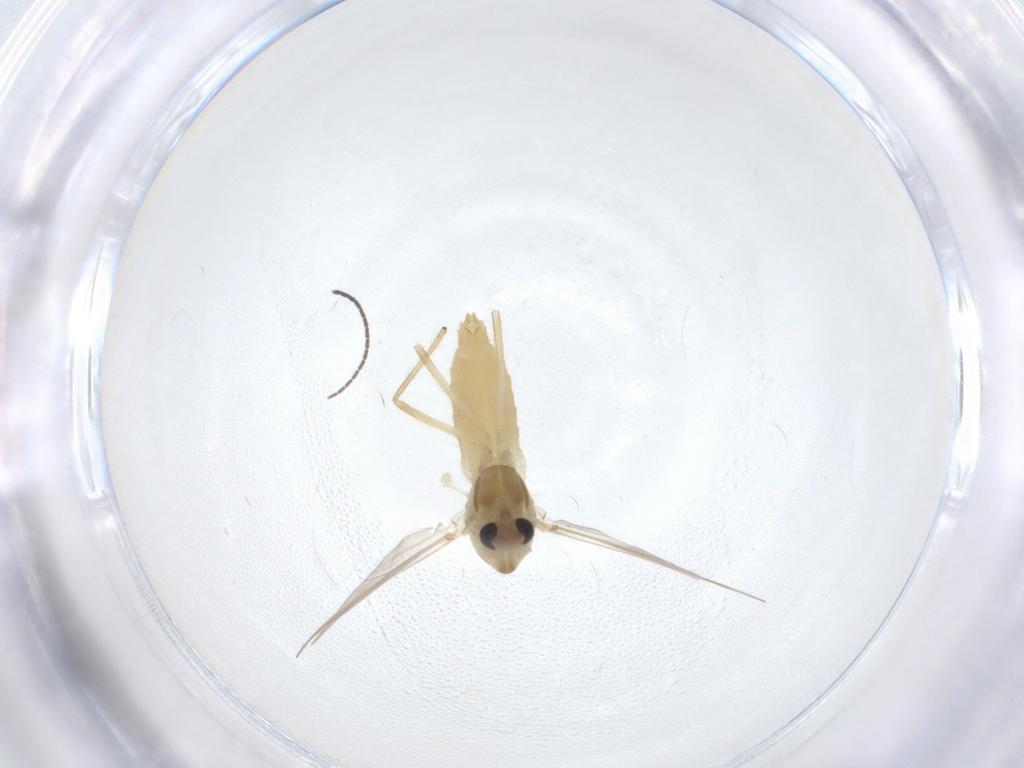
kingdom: Animalia
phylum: Arthropoda
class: Insecta
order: Diptera
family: Chironomidae
